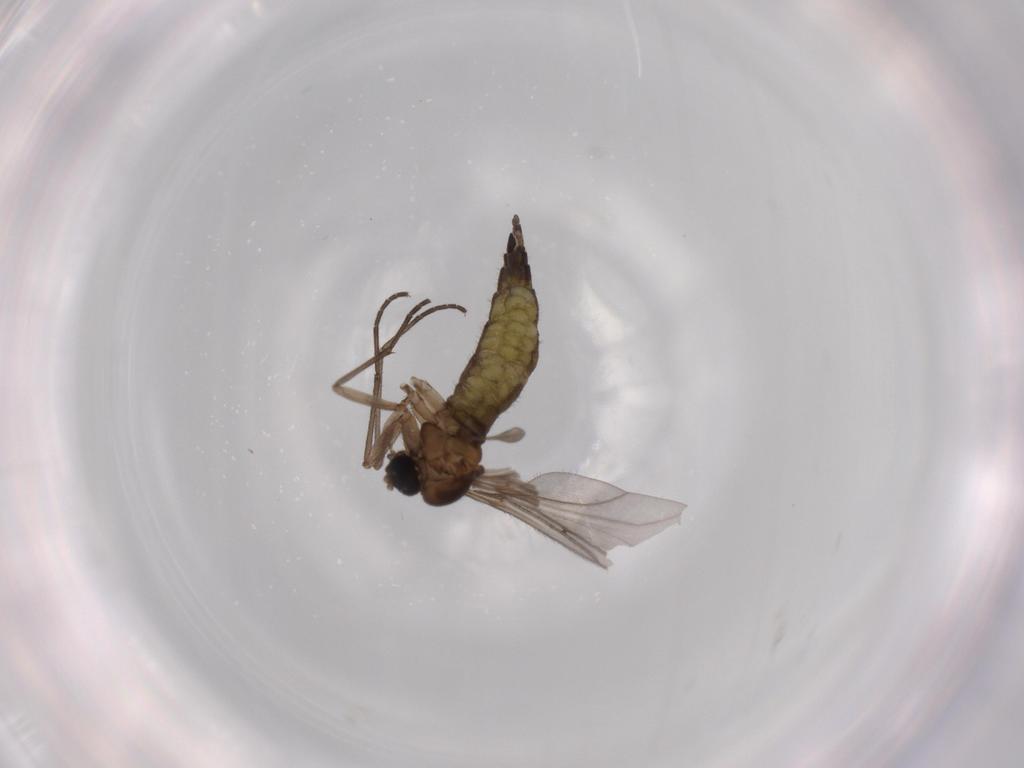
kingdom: Animalia
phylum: Arthropoda
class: Insecta
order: Diptera
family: Sciaridae
